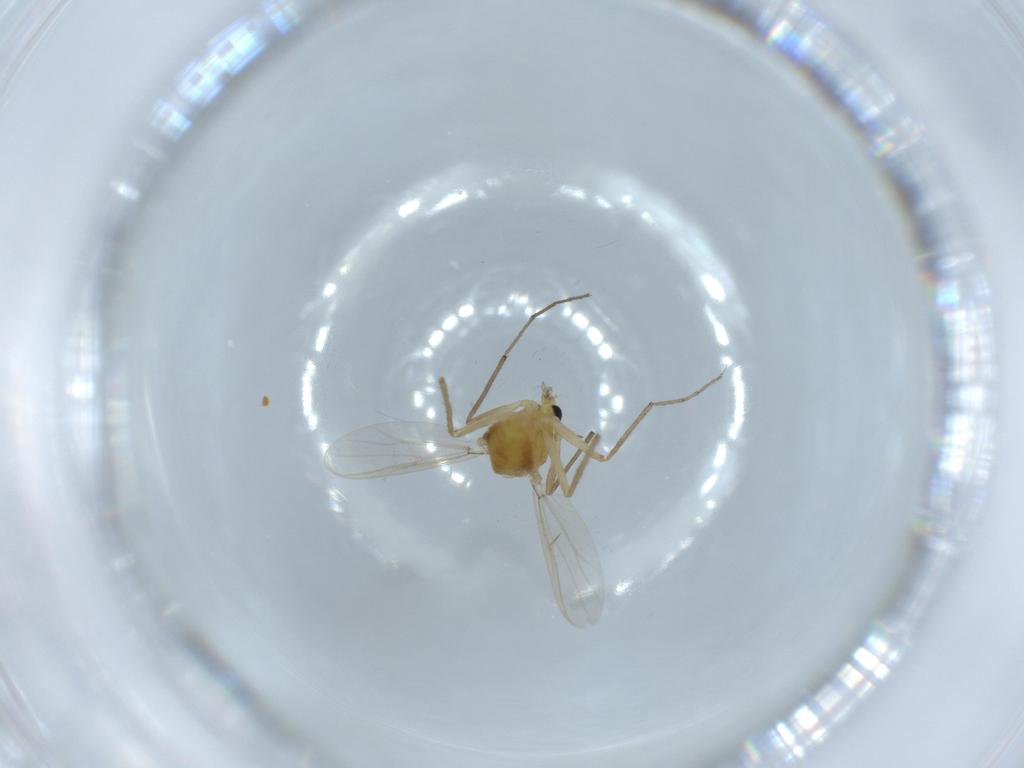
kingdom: Animalia
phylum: Arthropoda
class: Insecta
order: Diptera
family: Chironomidae
